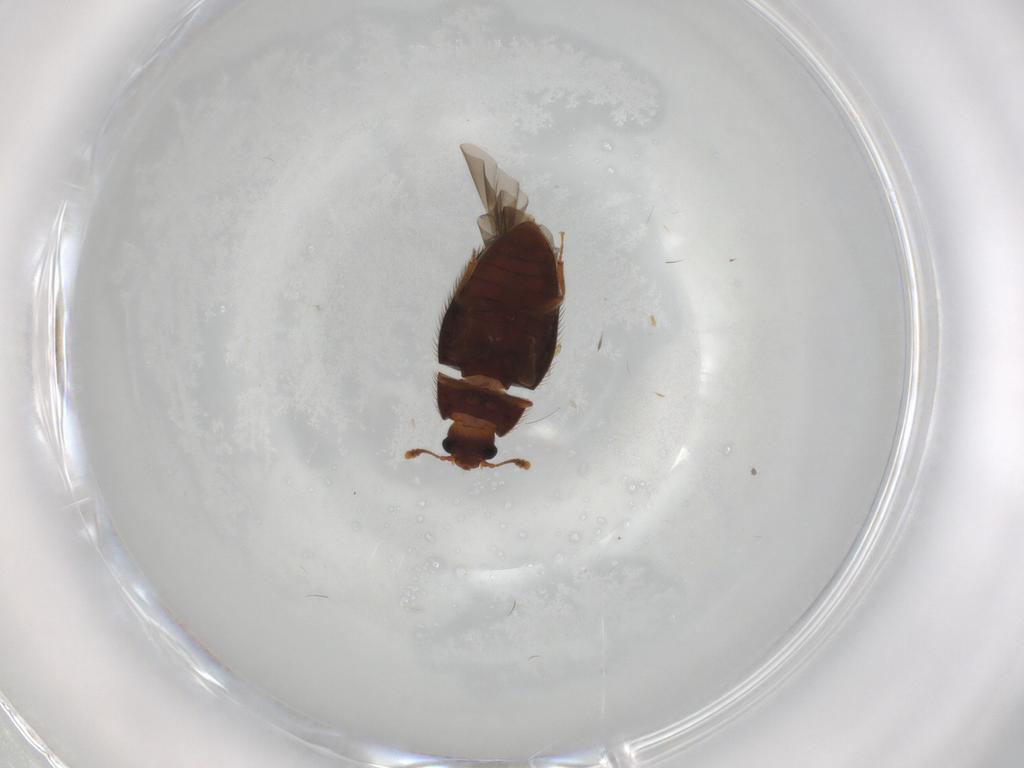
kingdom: Animalia
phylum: Arthropoda
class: Insecta
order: Coleoptera
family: Biphyllidae
